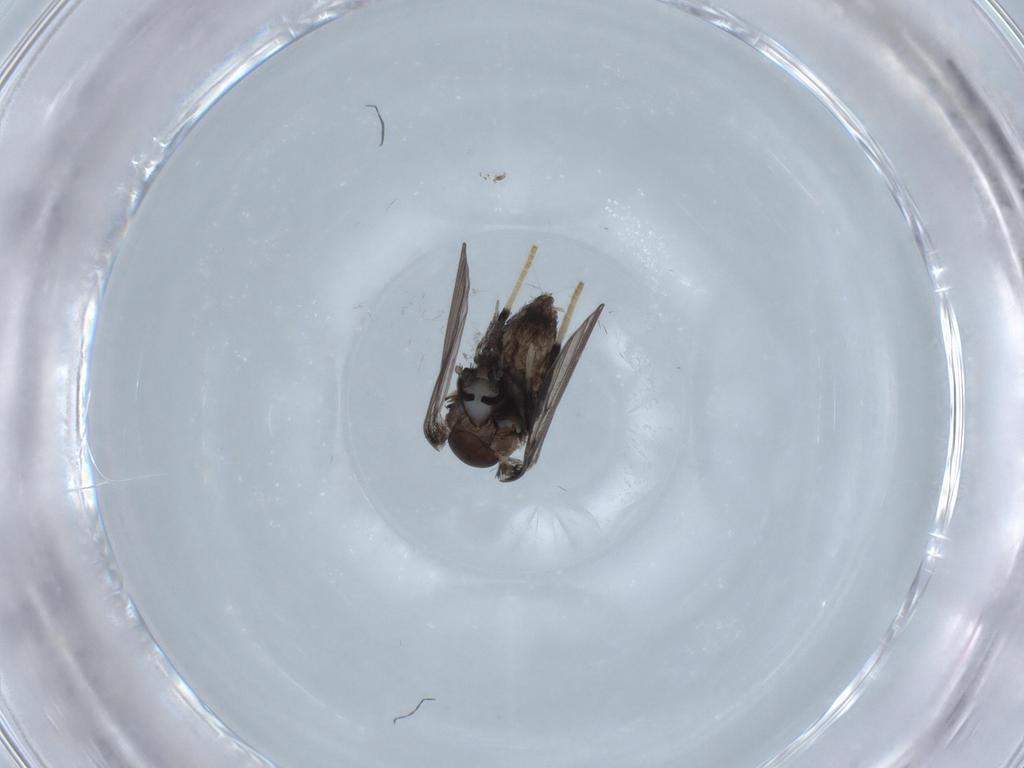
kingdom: Animalia
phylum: Arthropoda
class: Insecta
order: Diptera
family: Psychodidae
